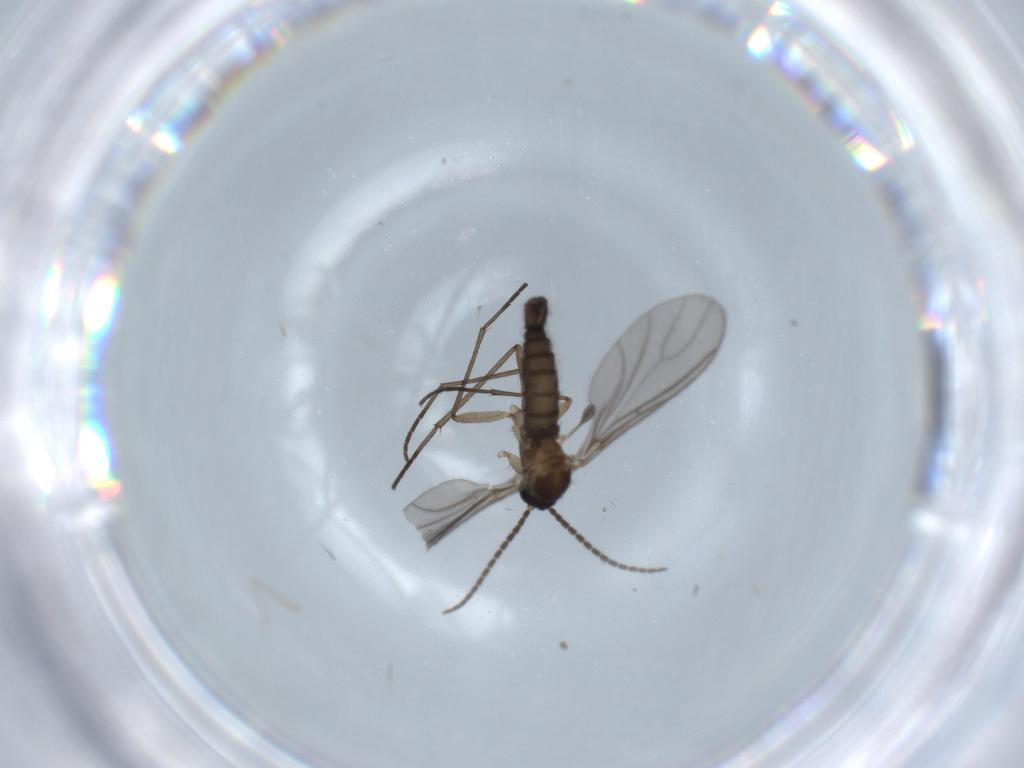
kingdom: Animalia
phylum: Arthropoda
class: Insecta
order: Diptera
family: Sciaridae
